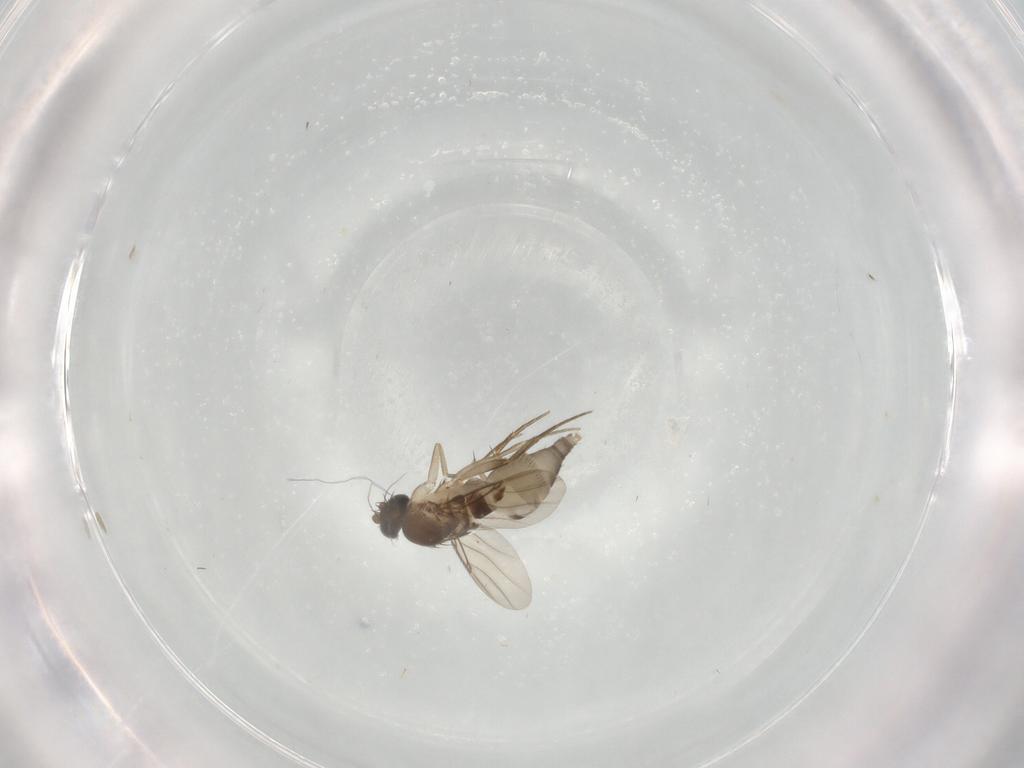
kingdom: Animalia
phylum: Arthropoda
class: Insecta
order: Diptera
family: Phoridae
